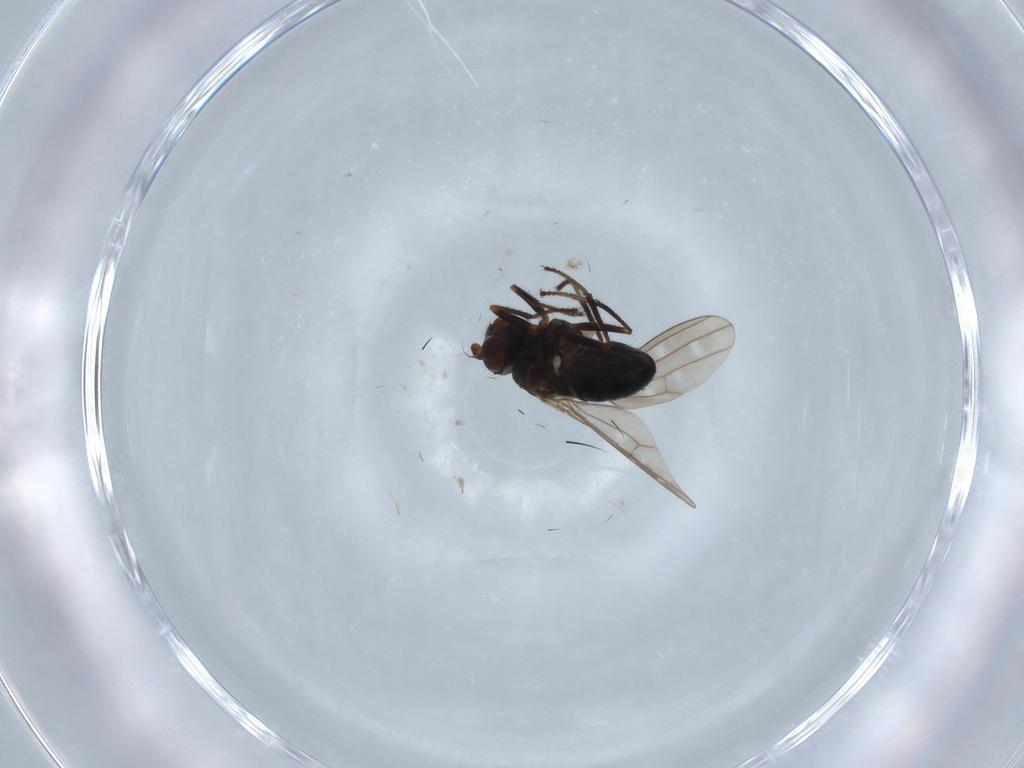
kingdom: Animalia
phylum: Arthropoda
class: Insecta
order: Diptera
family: Ephydridae
